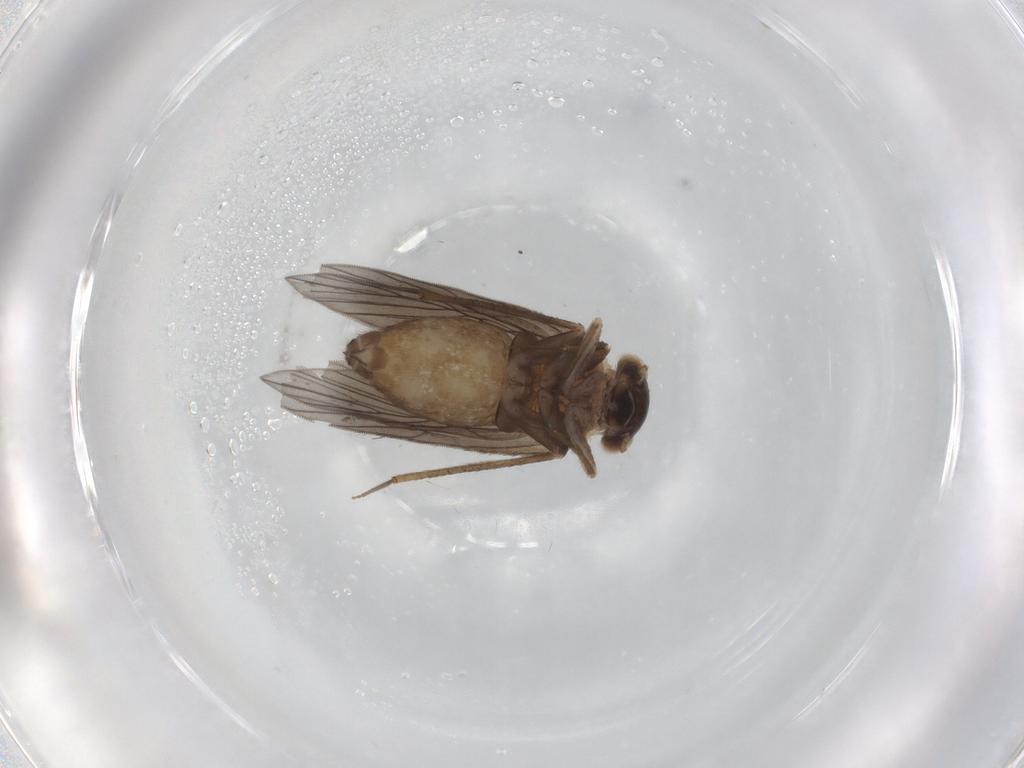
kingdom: Animalia
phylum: Arthropoda
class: Insecta
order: Psocodea
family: Lepidopsocidae
